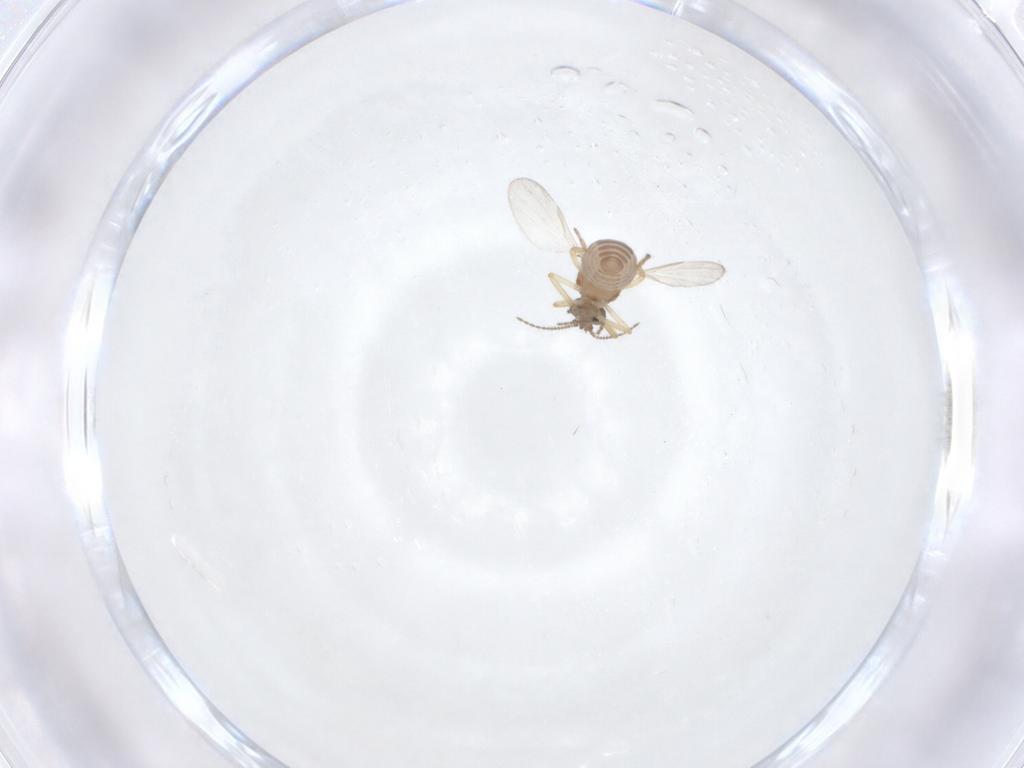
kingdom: Animalia
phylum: Arthropoda
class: Insecta
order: Diptera
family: Ceratopogonidae
